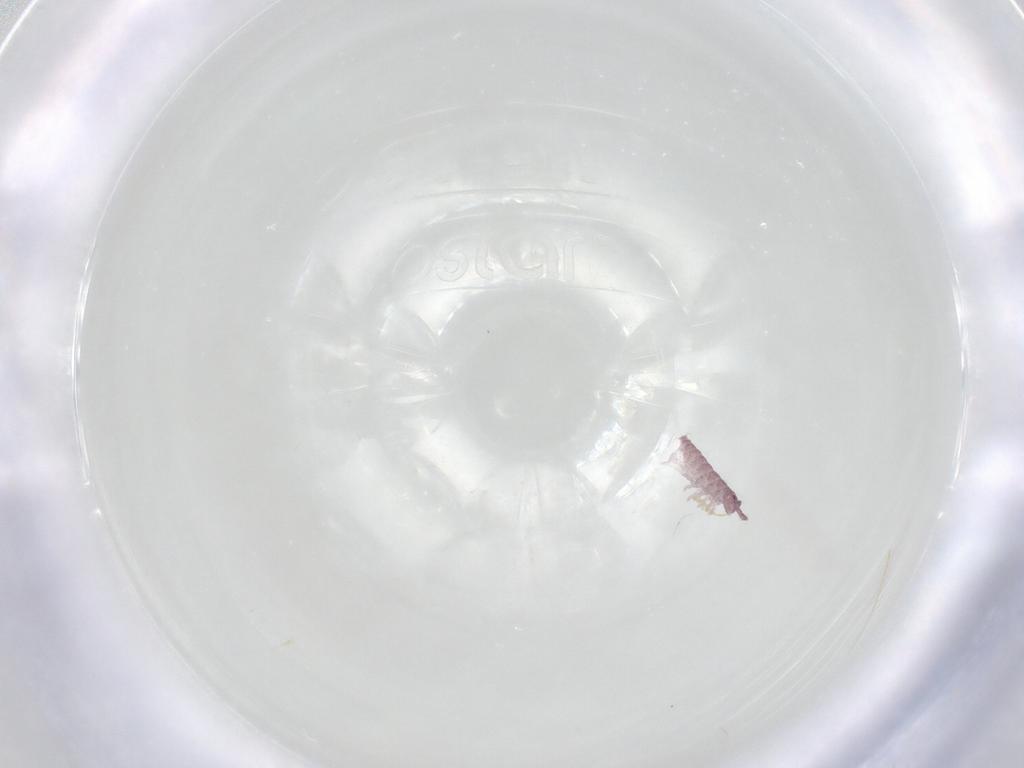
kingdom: Animalia
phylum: Arthropoda
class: Collembola
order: Poduromorpha
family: Hypogastruridae
